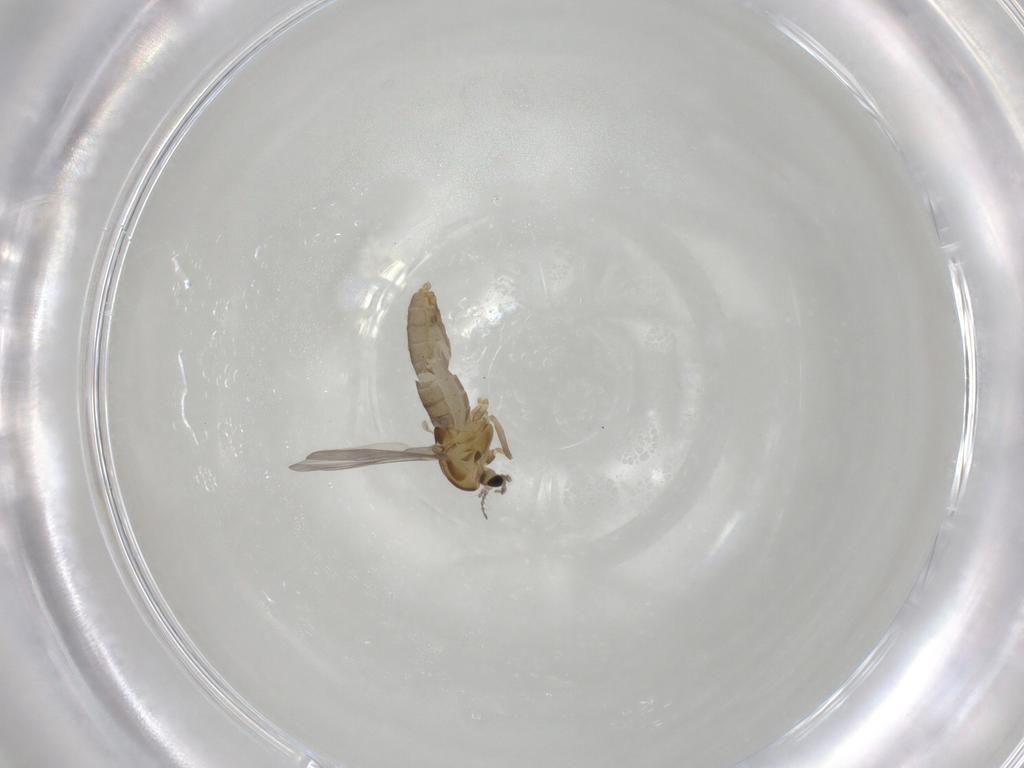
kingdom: Animalia
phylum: Arthropoda
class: Insecta
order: Diptera
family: Chironomidae
